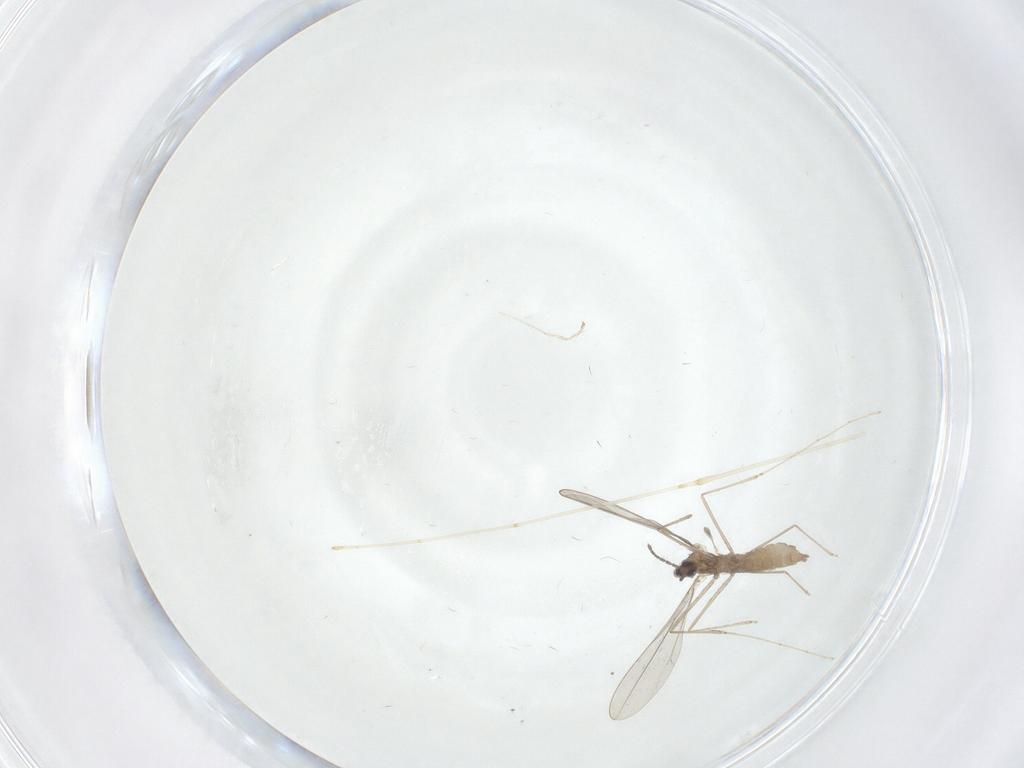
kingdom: Animalia
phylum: Arthropoda
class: Insecta
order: Diptera
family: Cecidomyiidae
